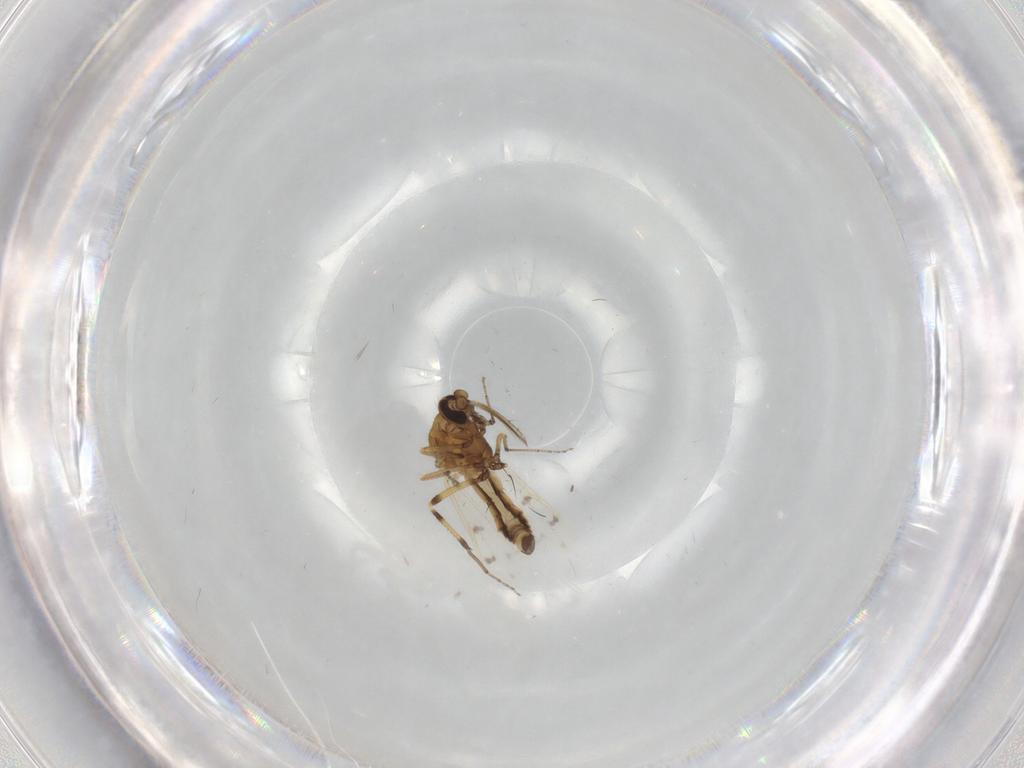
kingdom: Animalia
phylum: Arthropoda
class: Insecta
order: Diptera
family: Ceratopogonidae
